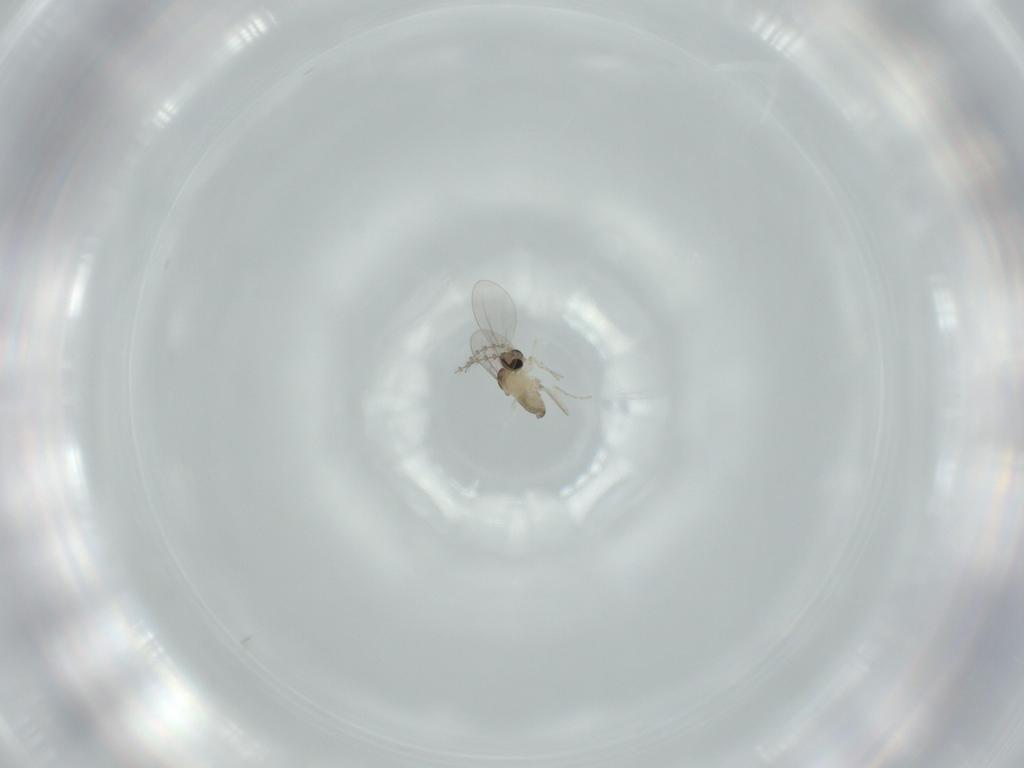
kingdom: Animalia
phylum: Arthropoda
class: Insecta
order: Diptera
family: Cecidomyiidae
